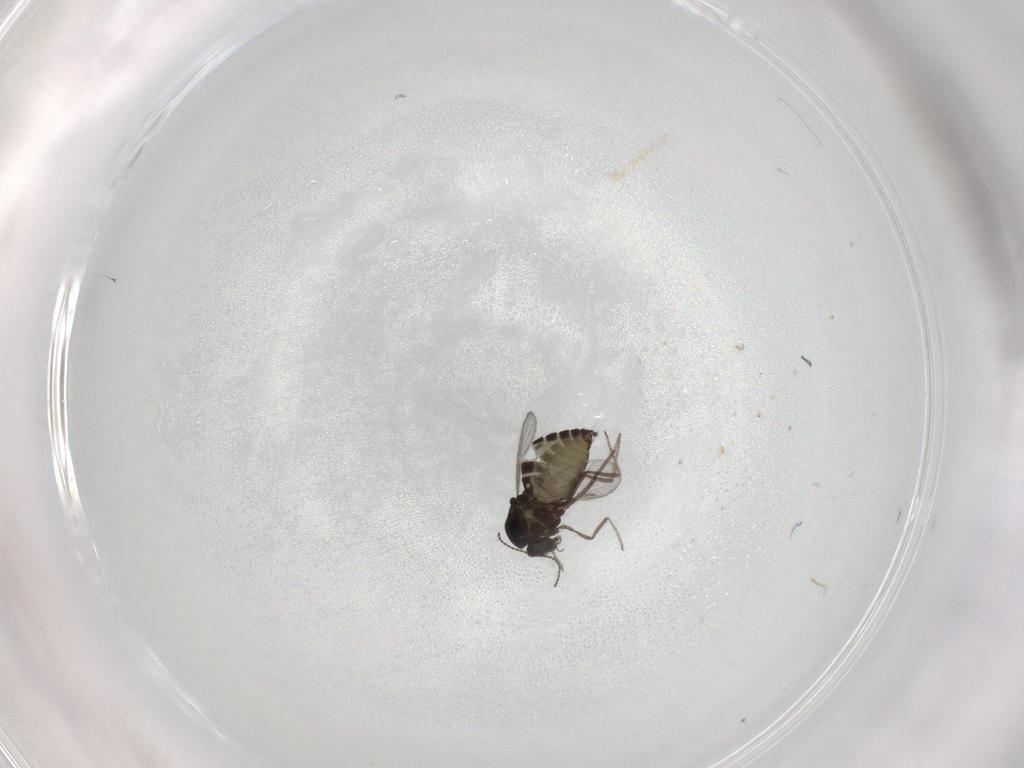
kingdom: Animalia
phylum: Arthropoda
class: Insecta
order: Diptera
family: Ceratopogonidae
